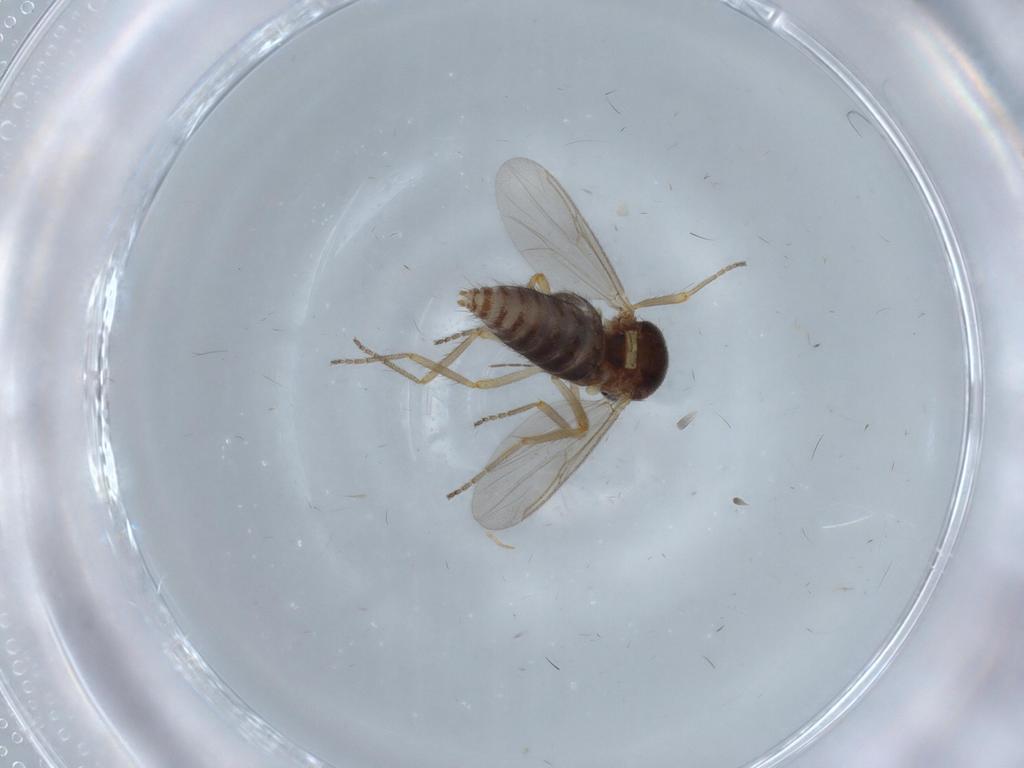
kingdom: Animalia
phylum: Arthropoda
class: Insecta
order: Diptera
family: Ceratopogonidae
